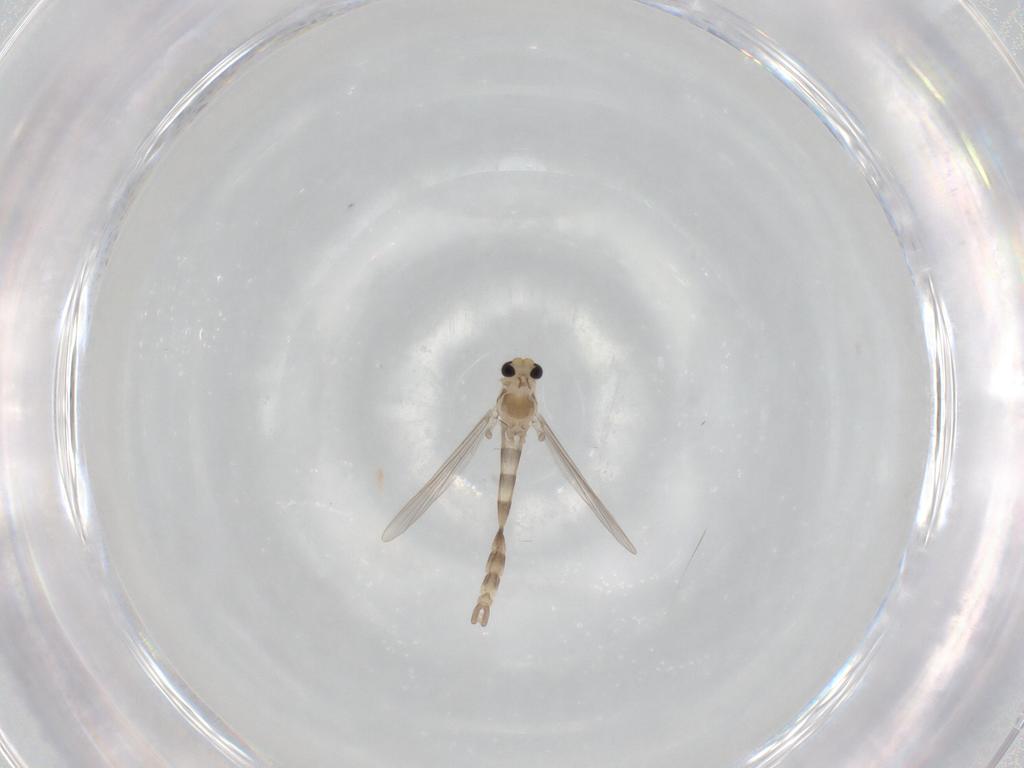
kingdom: Animalia
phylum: Arthropoda
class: Insecta
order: Diptera
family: Chironomidae
